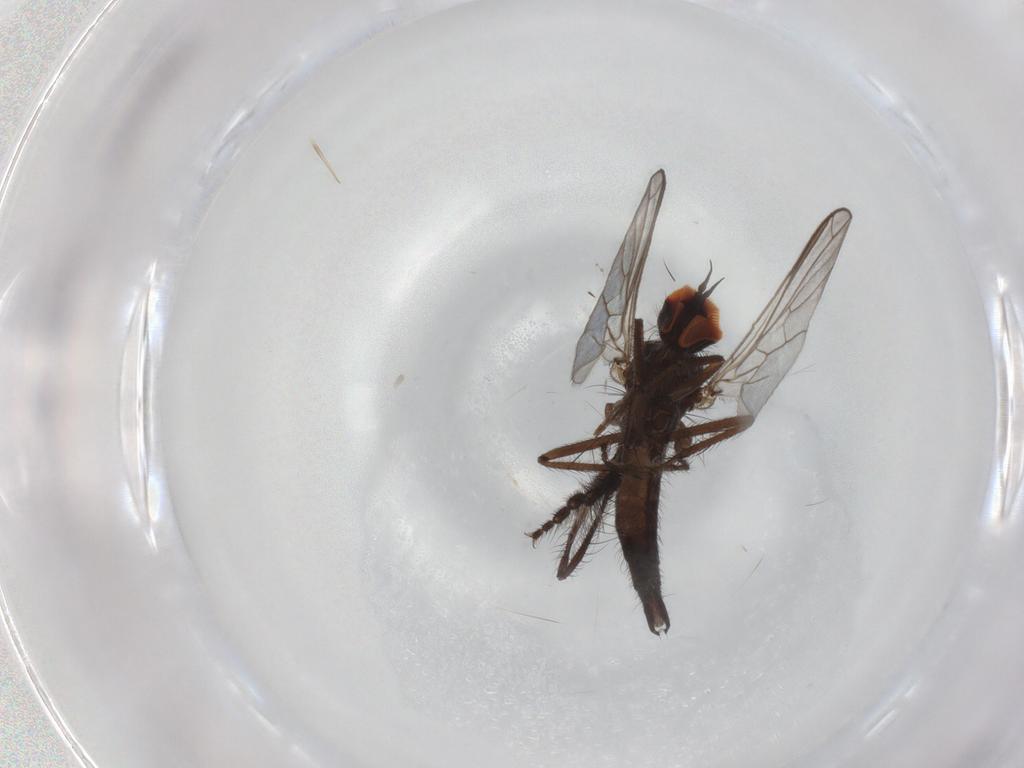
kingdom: Animalia
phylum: Arthropoda
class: Insecta
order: Diptera
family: Empididae
